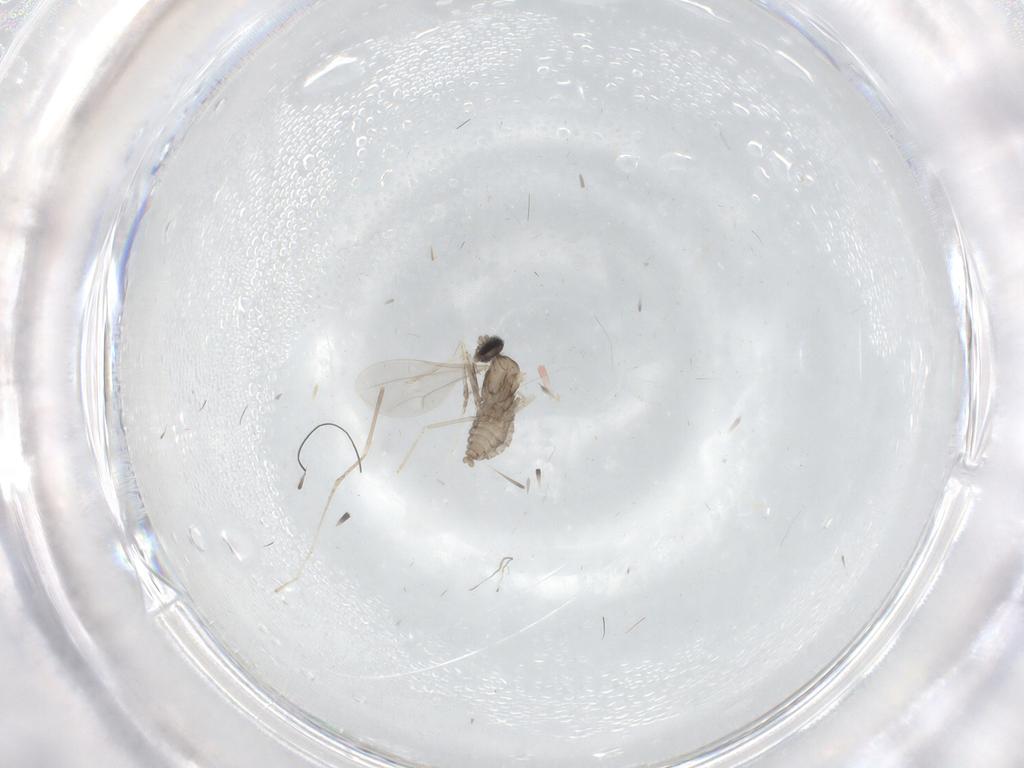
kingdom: Animalia
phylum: Arthropoda
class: Insecta
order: Diptera
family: Cecidomyiidae
